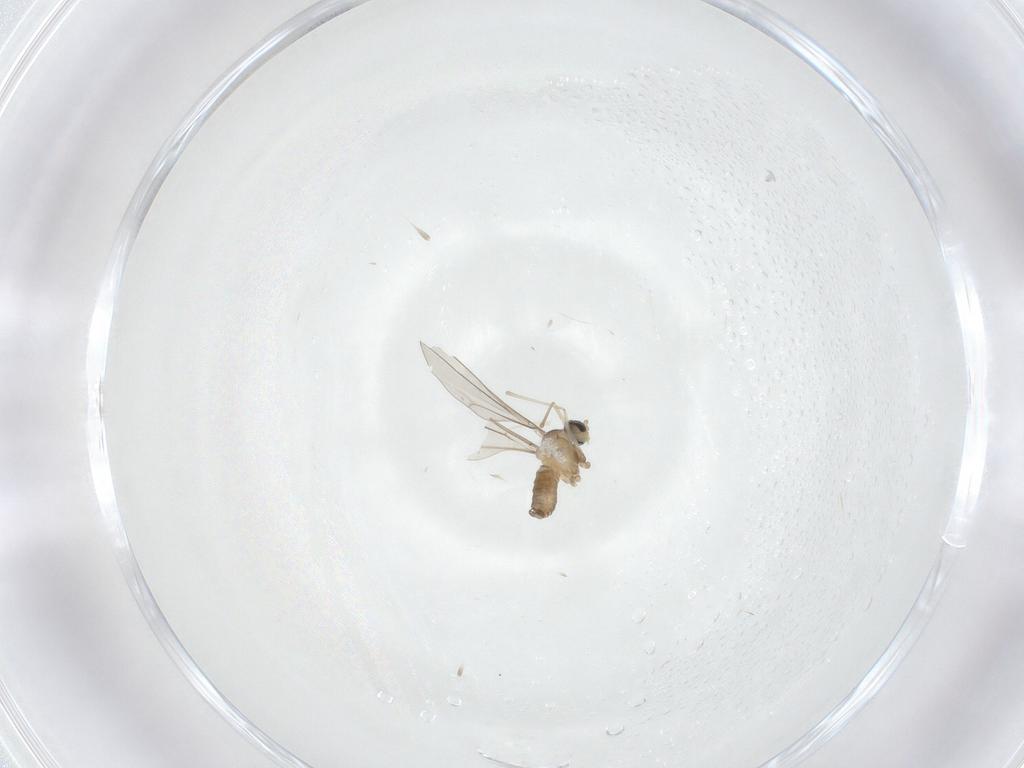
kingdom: Animalia
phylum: Arthropoda
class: Insecta
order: Diptera
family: Cecidomyiidae
